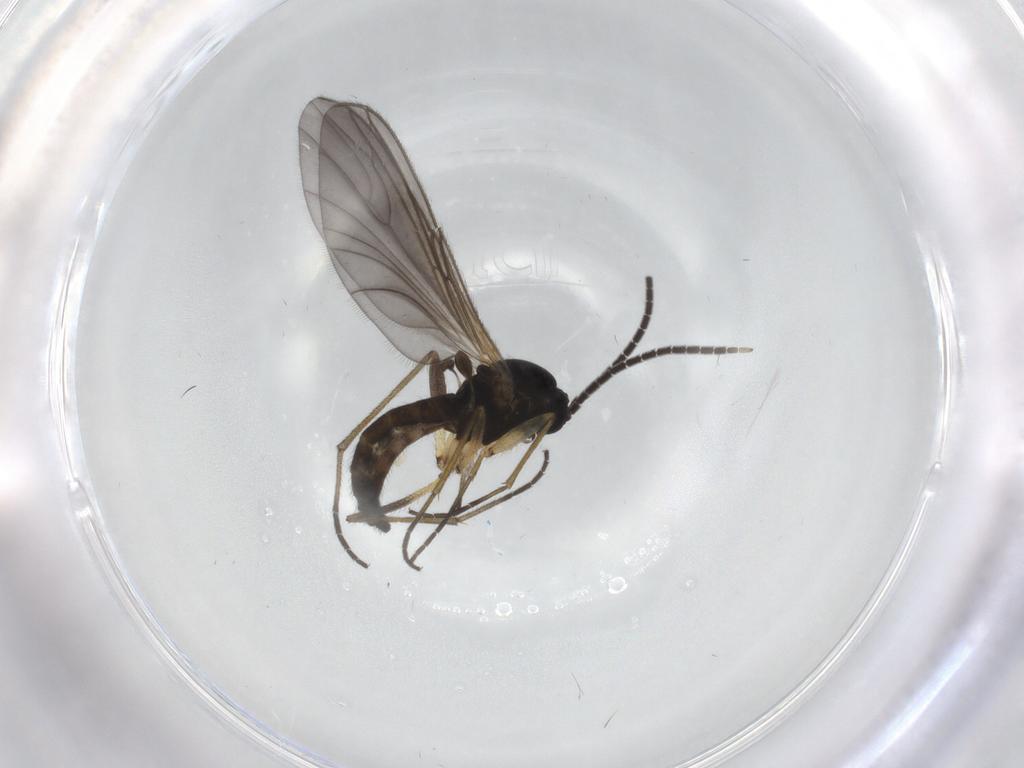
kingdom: Animalia
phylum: Arthropoda
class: Insecta
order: Diptera
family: Sciaridae
